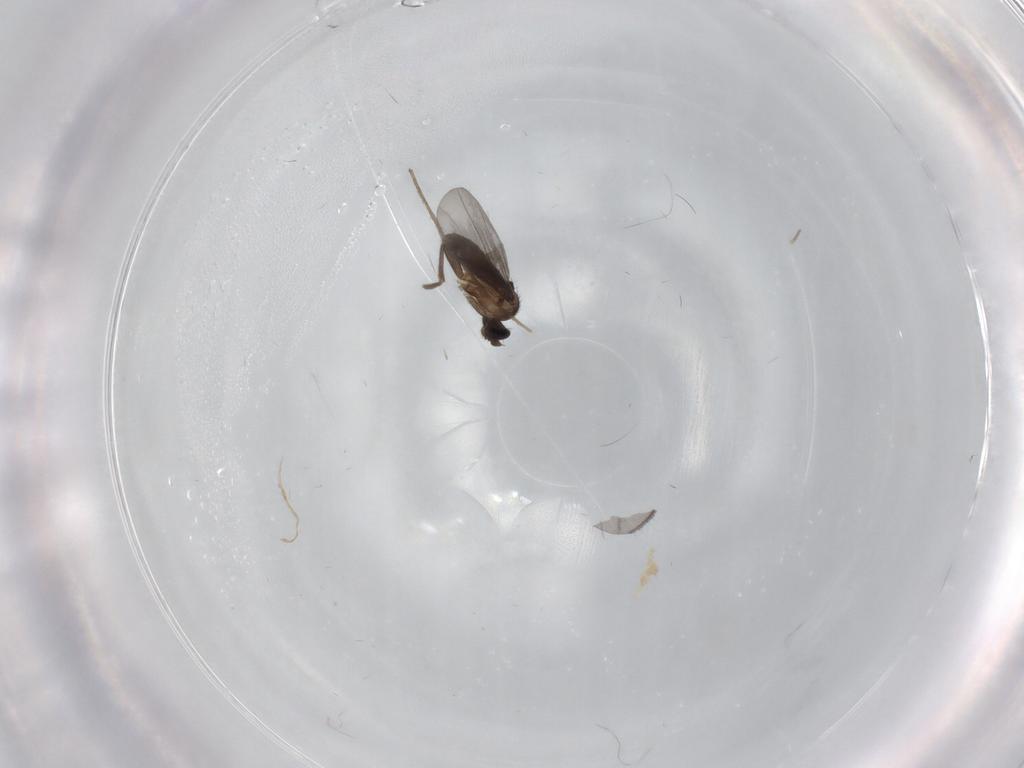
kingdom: Animalia
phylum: Arthropoda
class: Insecta
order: Diptera
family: Phoridae
